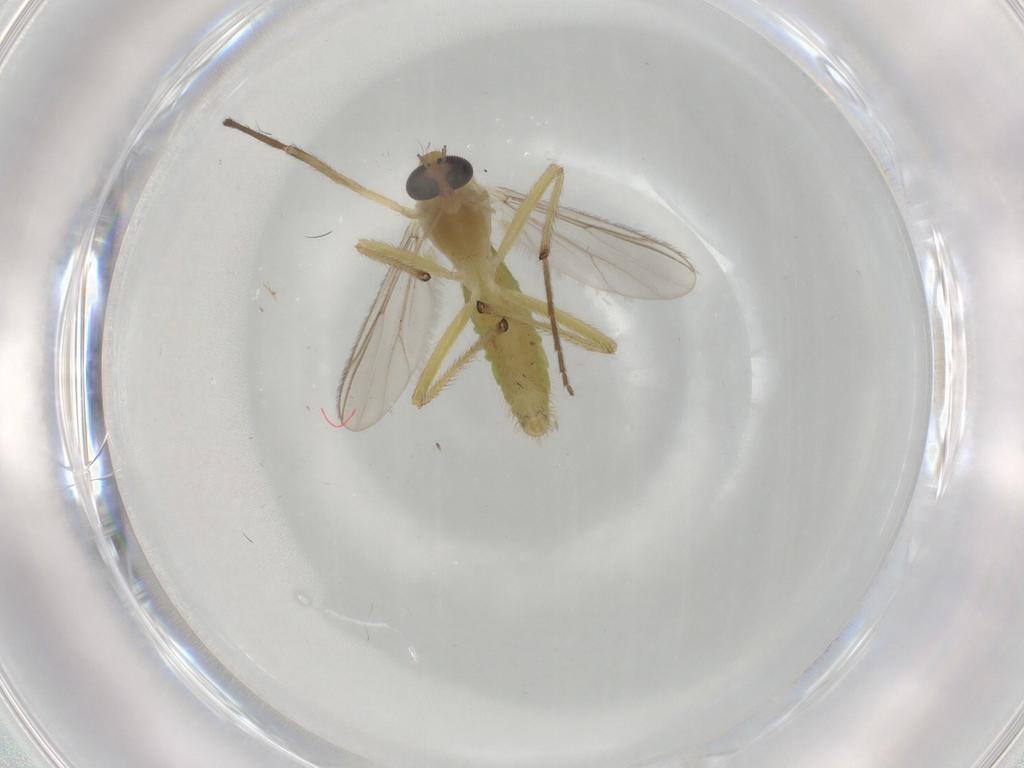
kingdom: Animalia
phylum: Arthropoda
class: Insecta
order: Diptera
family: Chironomidae
